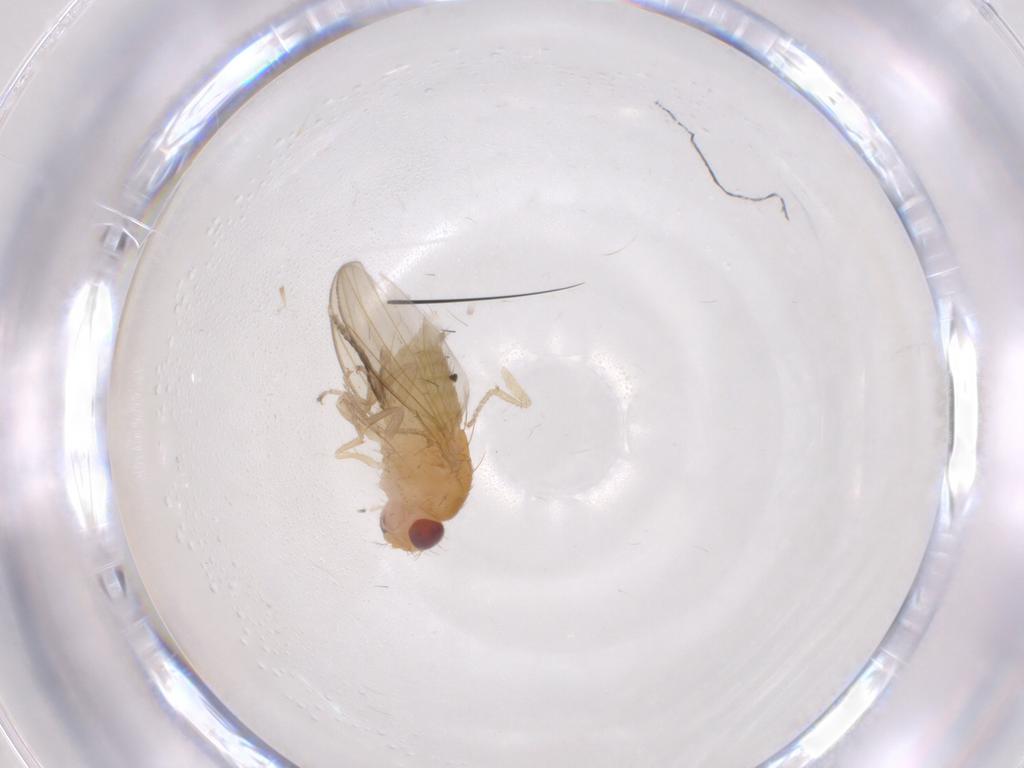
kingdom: Animalia
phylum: Arthropoda
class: Insecta
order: Diptera
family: Drosophilidae
